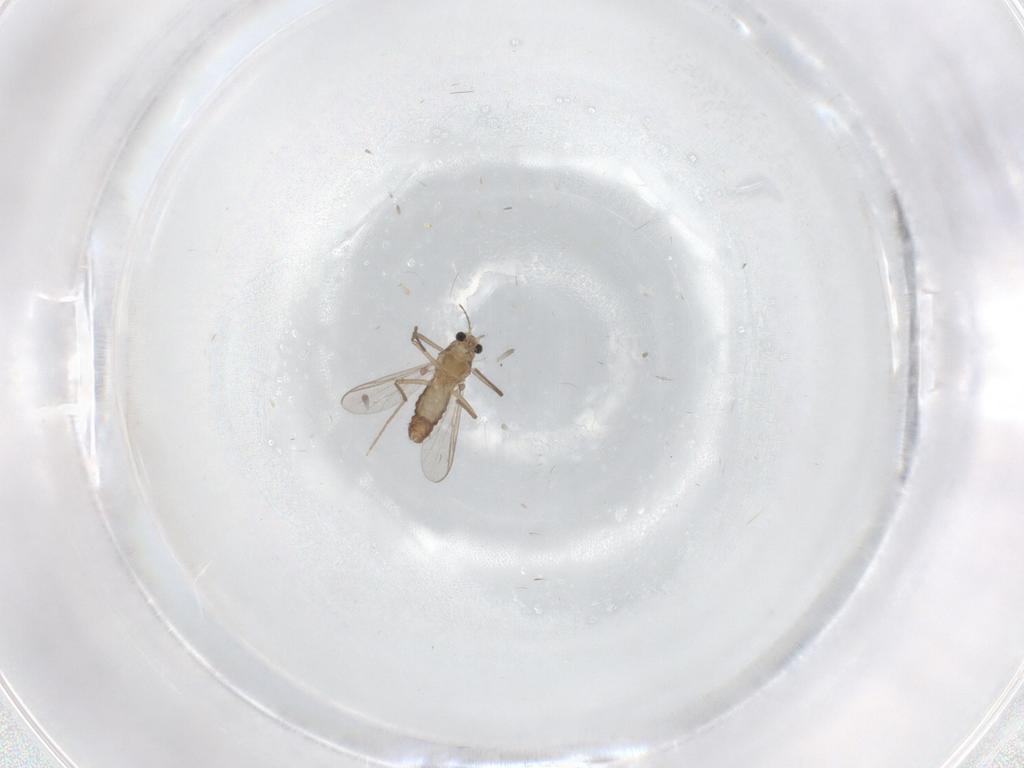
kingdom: Animalia
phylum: Arthropoda
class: Insecta
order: Diptera
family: Chironomidae
